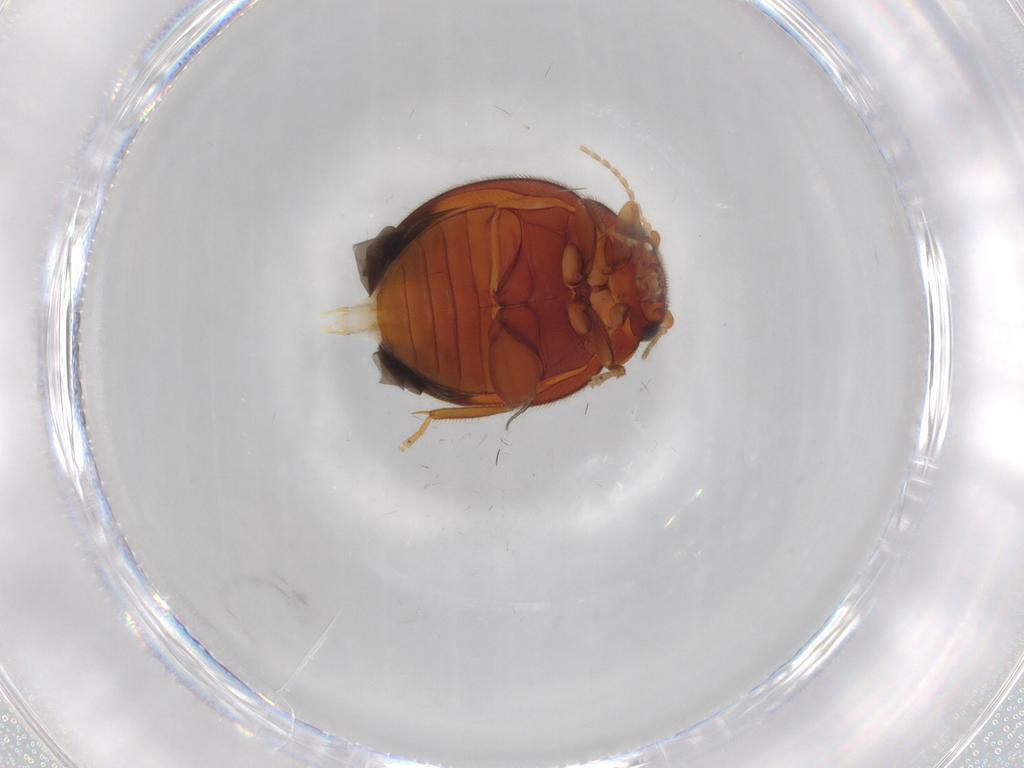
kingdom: Animalia
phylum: Arthropoda
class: Insecta
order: Coleoptera
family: Scirtidae
